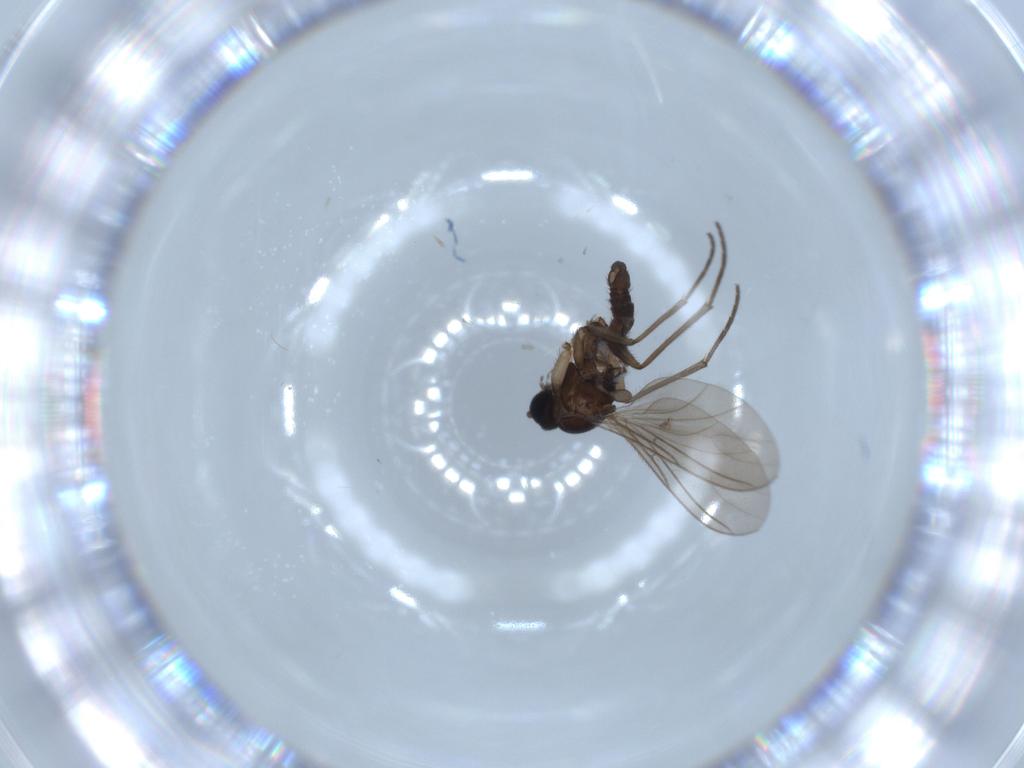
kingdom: Animalia
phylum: Arthropoda
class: Insecta
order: Diptera
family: Sciaridae
